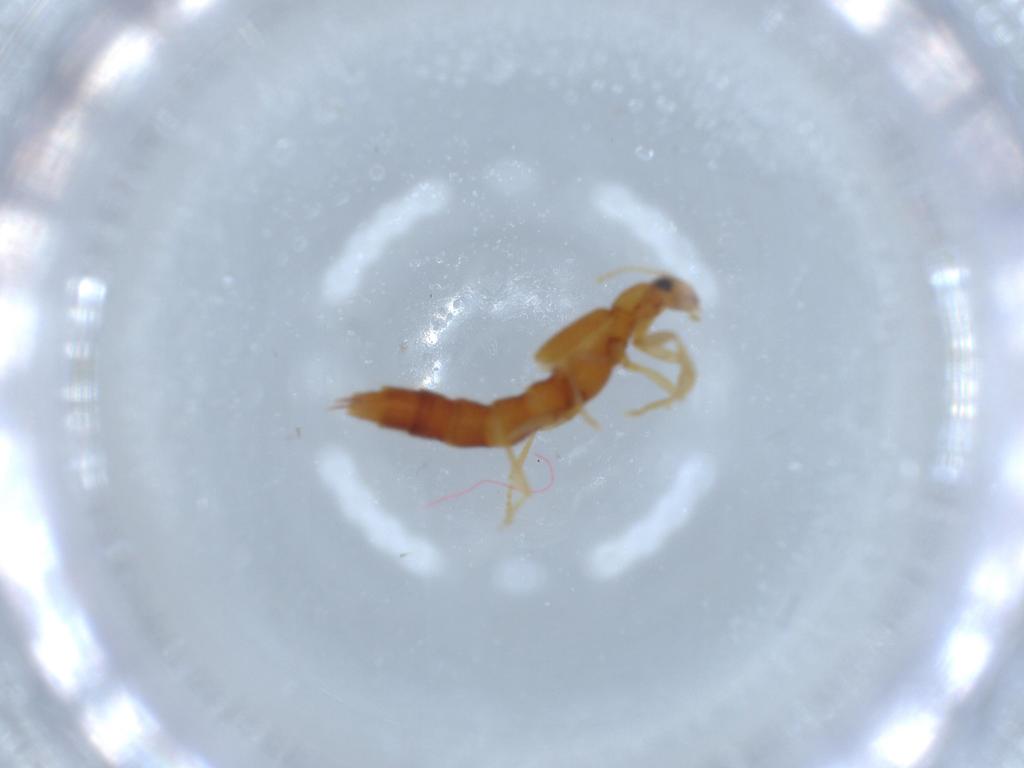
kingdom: Animalia
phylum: Arthropoda
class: Insecta
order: Coleoptera
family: Staphylinidae
